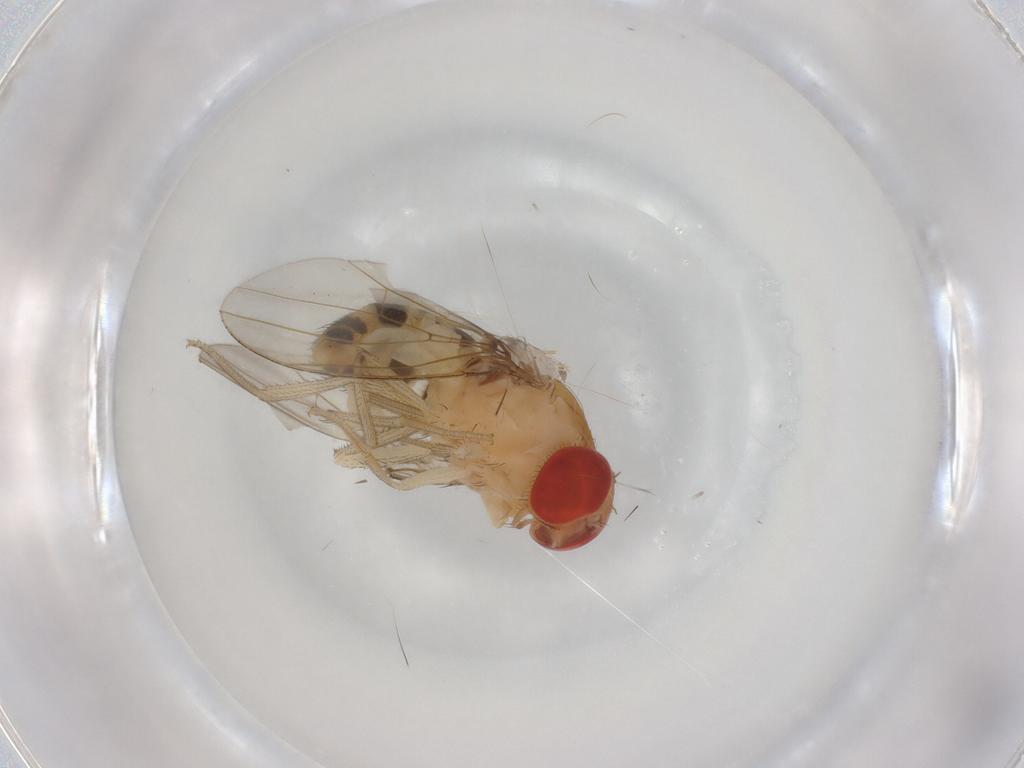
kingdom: Animalia
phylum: Arthropoda
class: Insecta
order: Diptera
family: Drosophilidae
